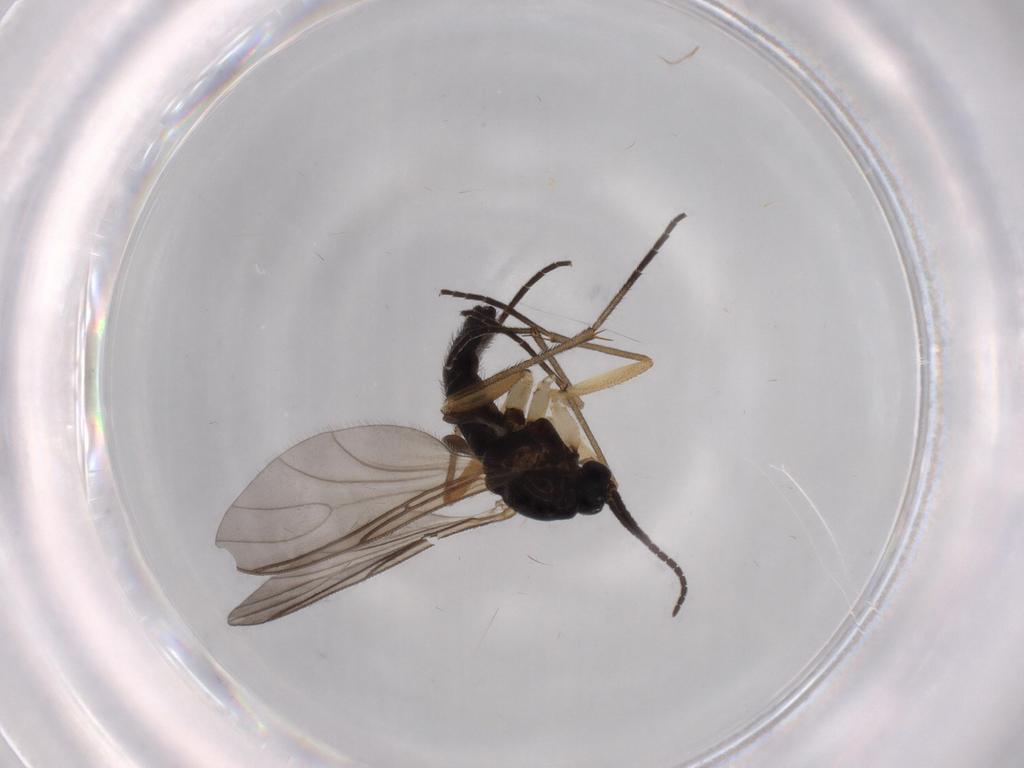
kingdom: Animalia
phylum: Arthropoda
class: Insecta
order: Diptera
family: Sciaridae
